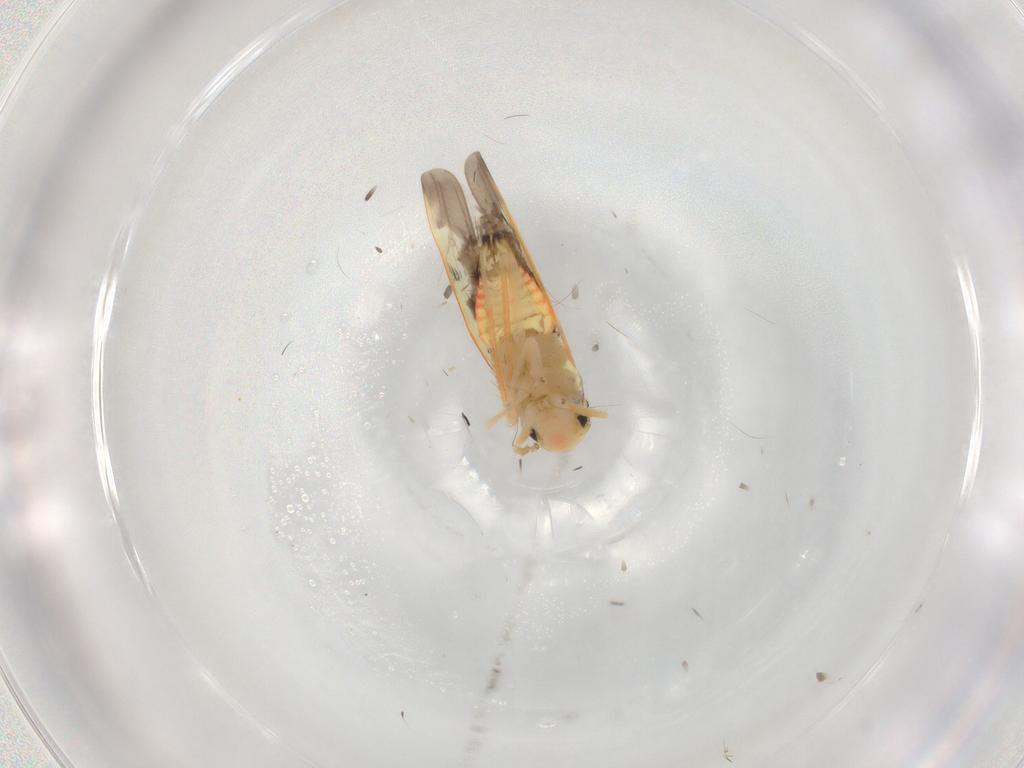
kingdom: Animalia
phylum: Arthropoda
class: Insecta
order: Hemiptera
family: Cicadellidae
